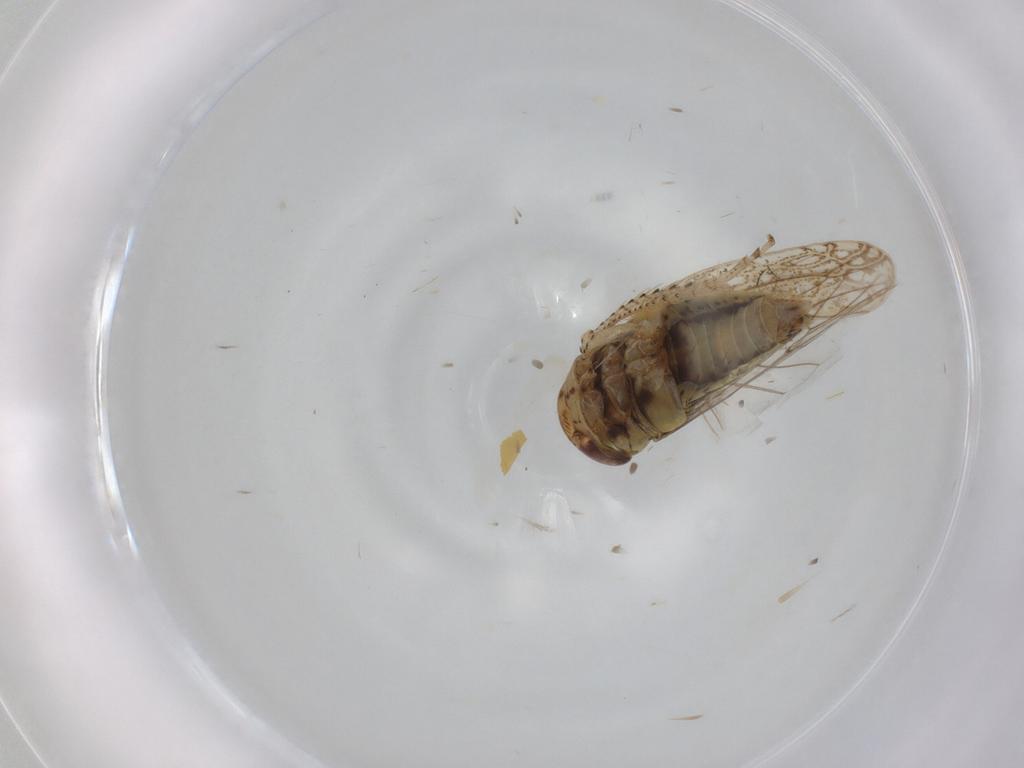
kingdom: Animalia
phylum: Arthropoda
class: Insecta
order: Hemiptera
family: Cicadellidae
